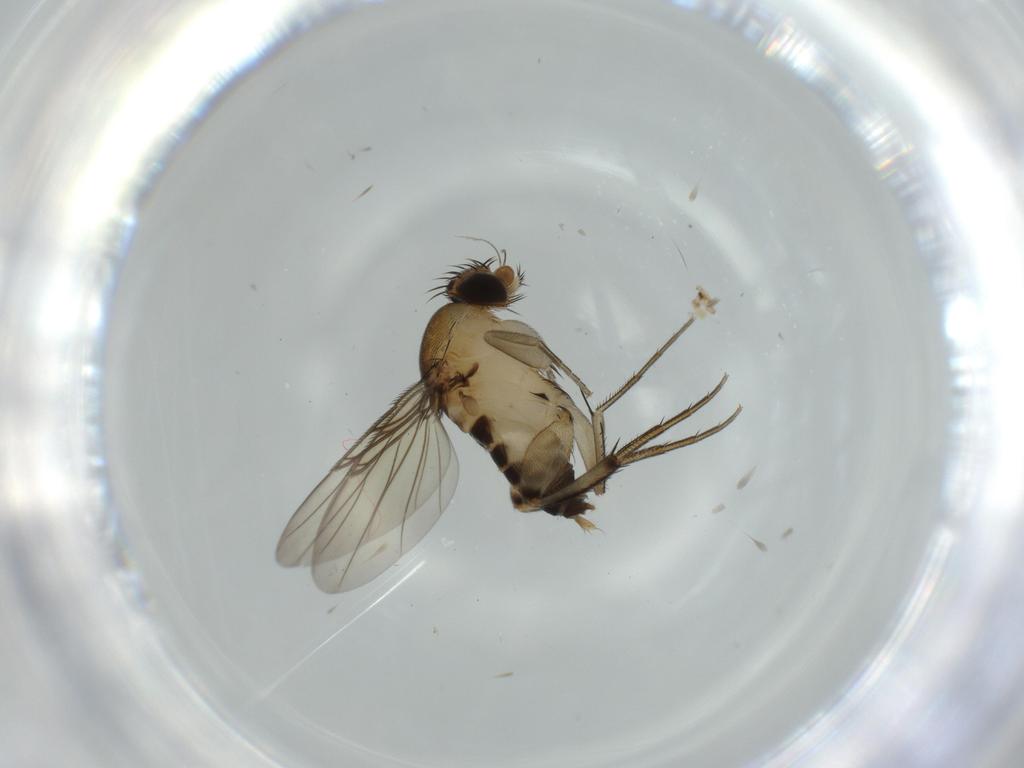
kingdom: Animalia
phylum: Arthropoda
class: Insecta
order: Diptera
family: Phoridae
